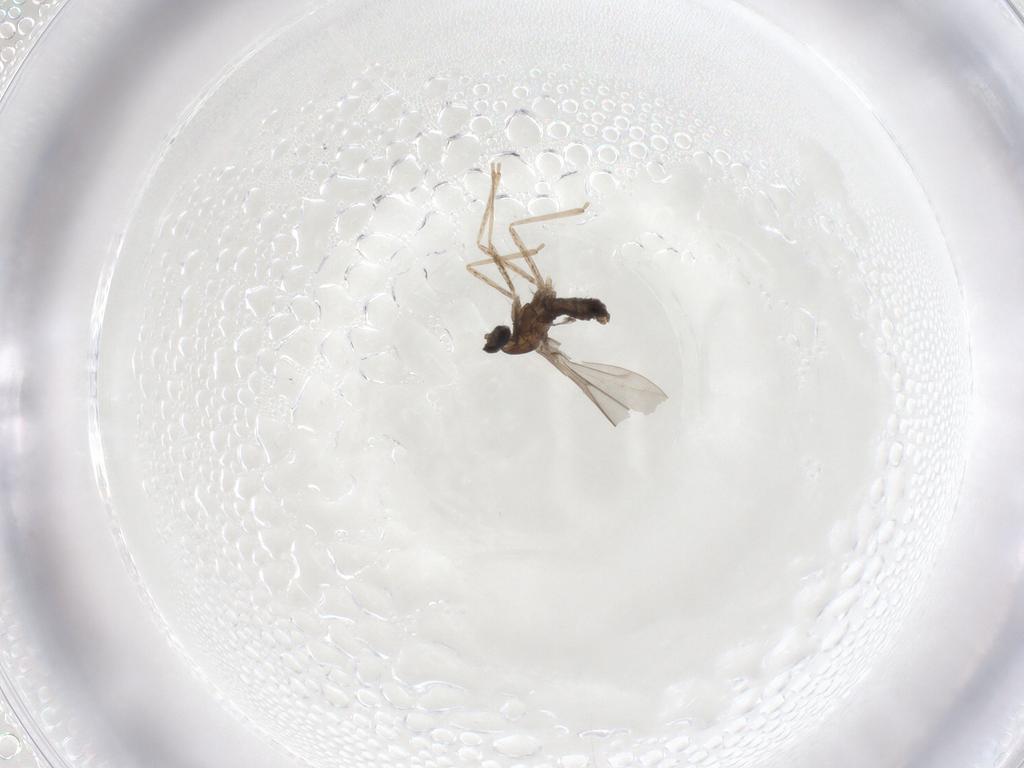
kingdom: Animalia
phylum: Arthropoda
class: Insecta
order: Diptera
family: Cecidomyiidae
